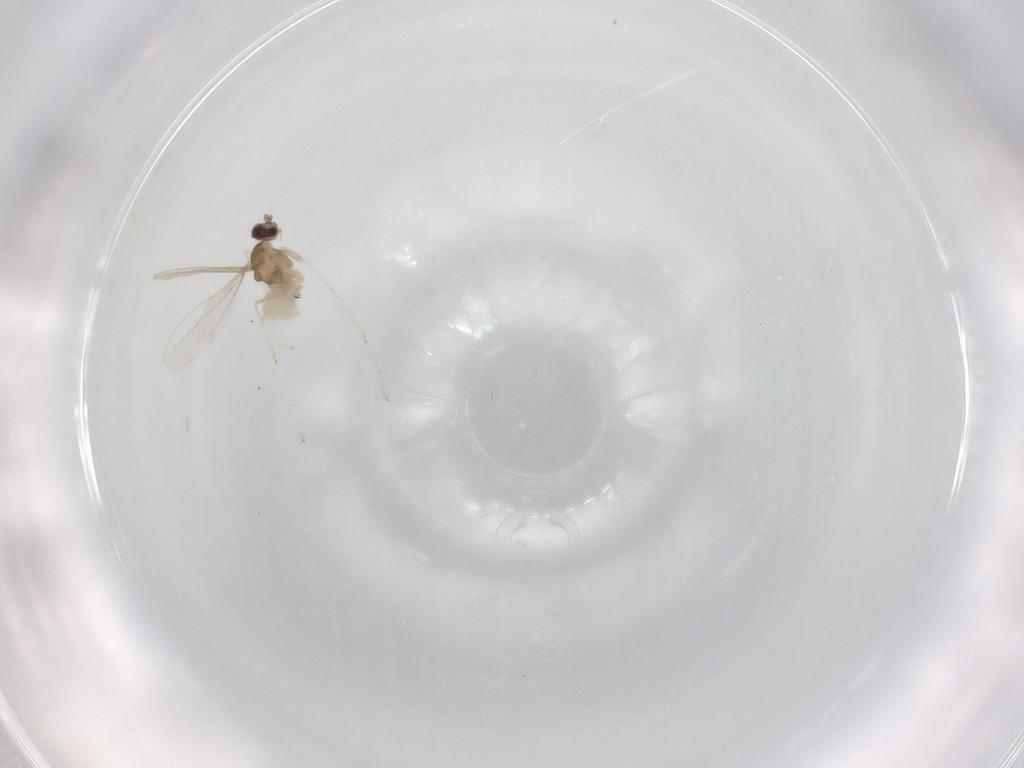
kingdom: Animalia
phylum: Arthropoda
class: Insecta
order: Diptera
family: Cecidomyiidae
